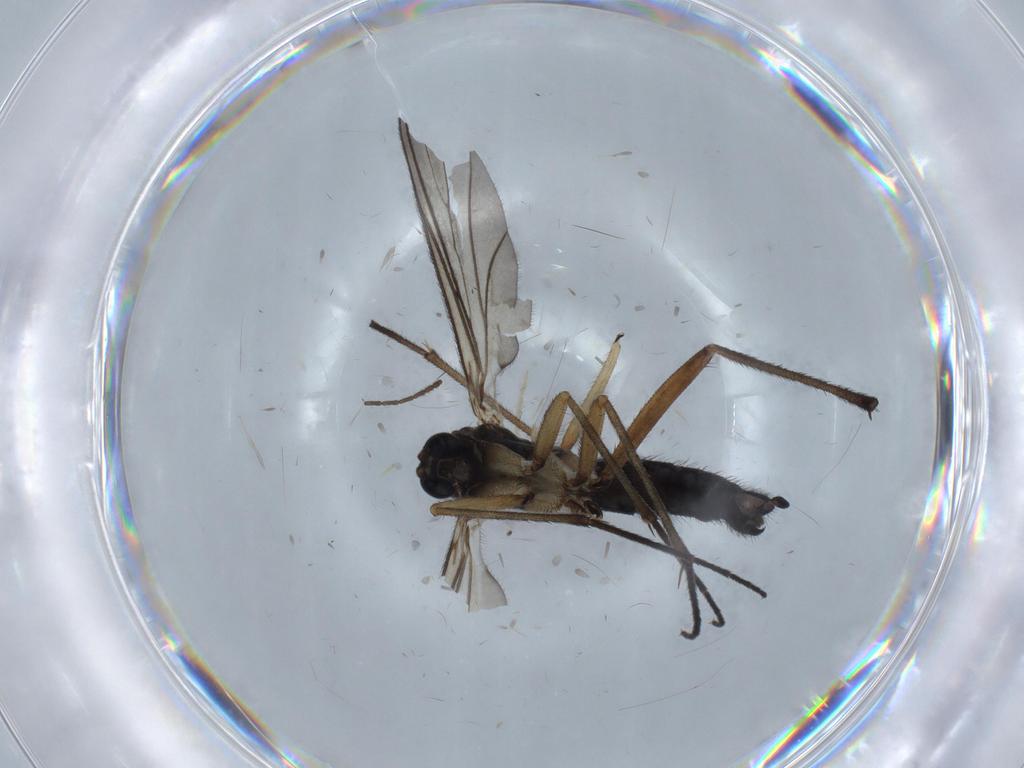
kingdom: Animalia
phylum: Arthropoda
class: Insecta
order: Diptera
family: Sciaridae
